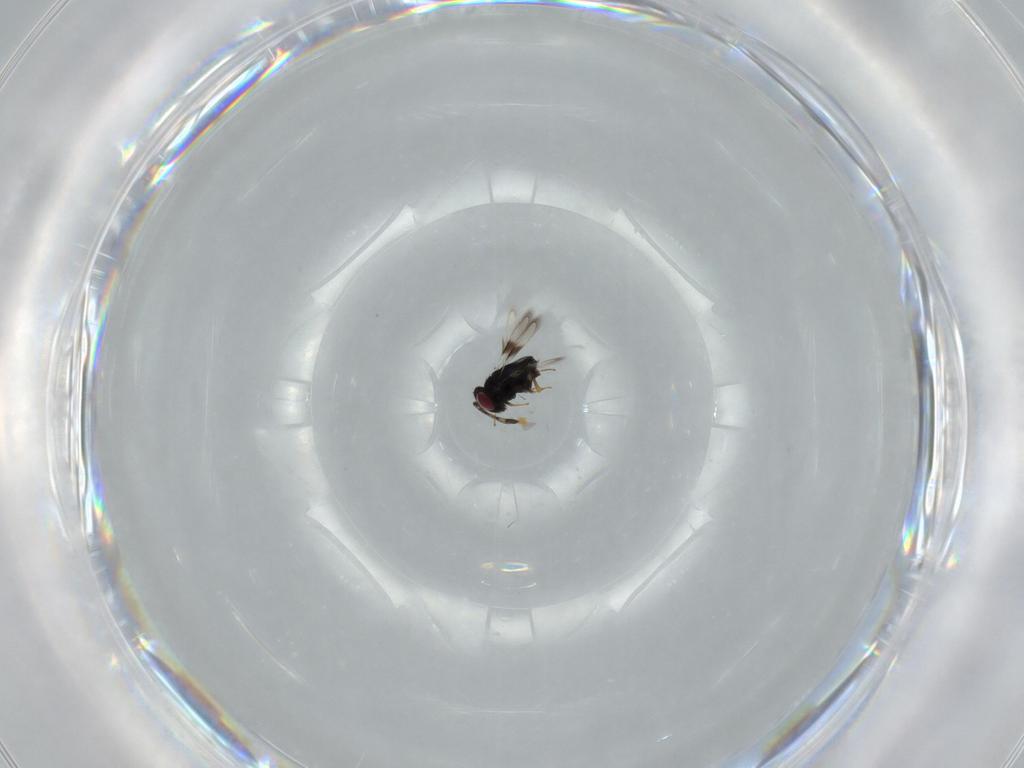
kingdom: Animalia
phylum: Arthropoda
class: Insecta
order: Hymenoptera
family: Azotidae
